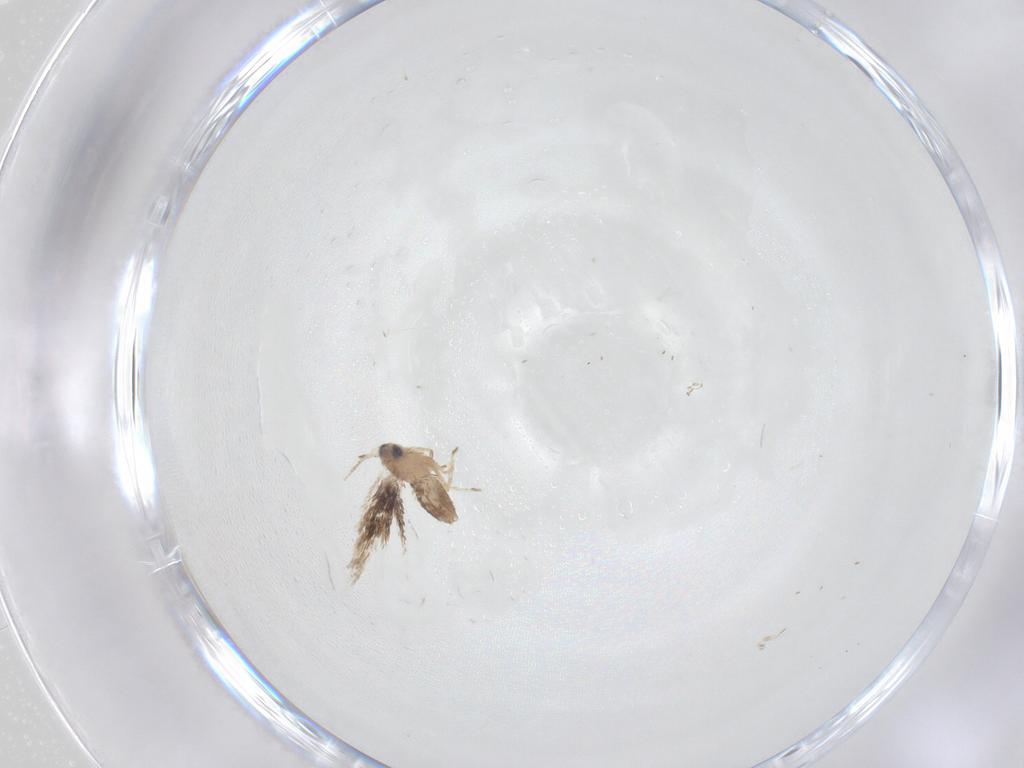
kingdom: Animalia
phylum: Arthropoda
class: Insecta
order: Lepidoptera
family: Nepticulidae
